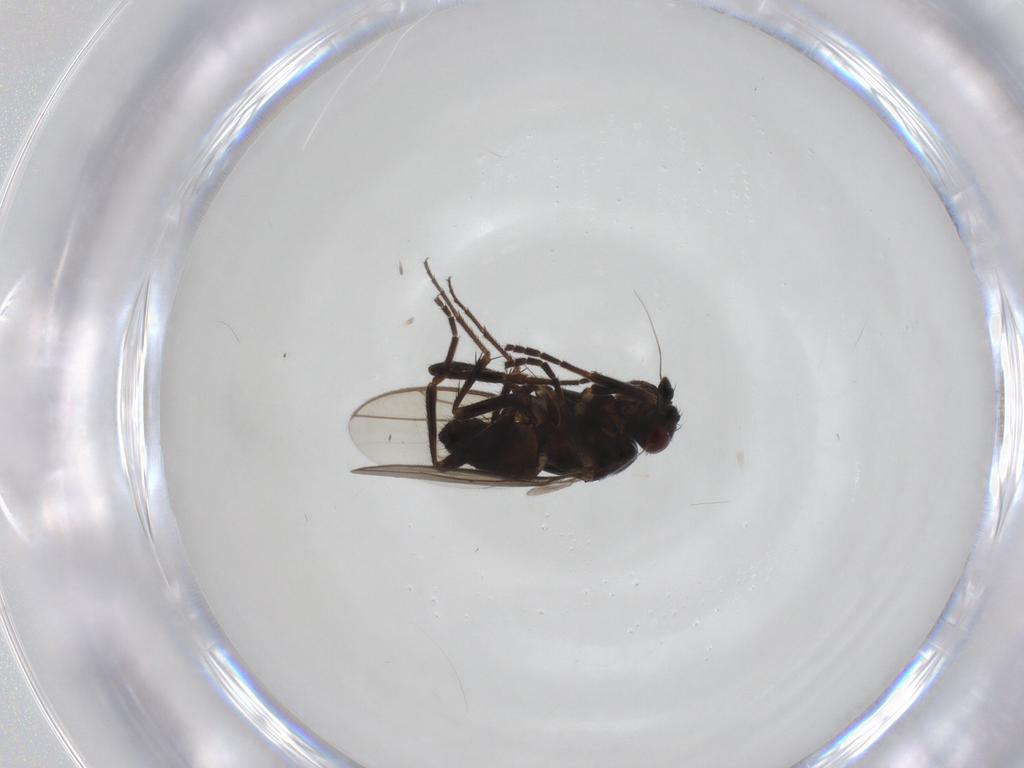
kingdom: Animalia
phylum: Arthropoda
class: Insecta
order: Diptera
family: Sphaeroceridae
